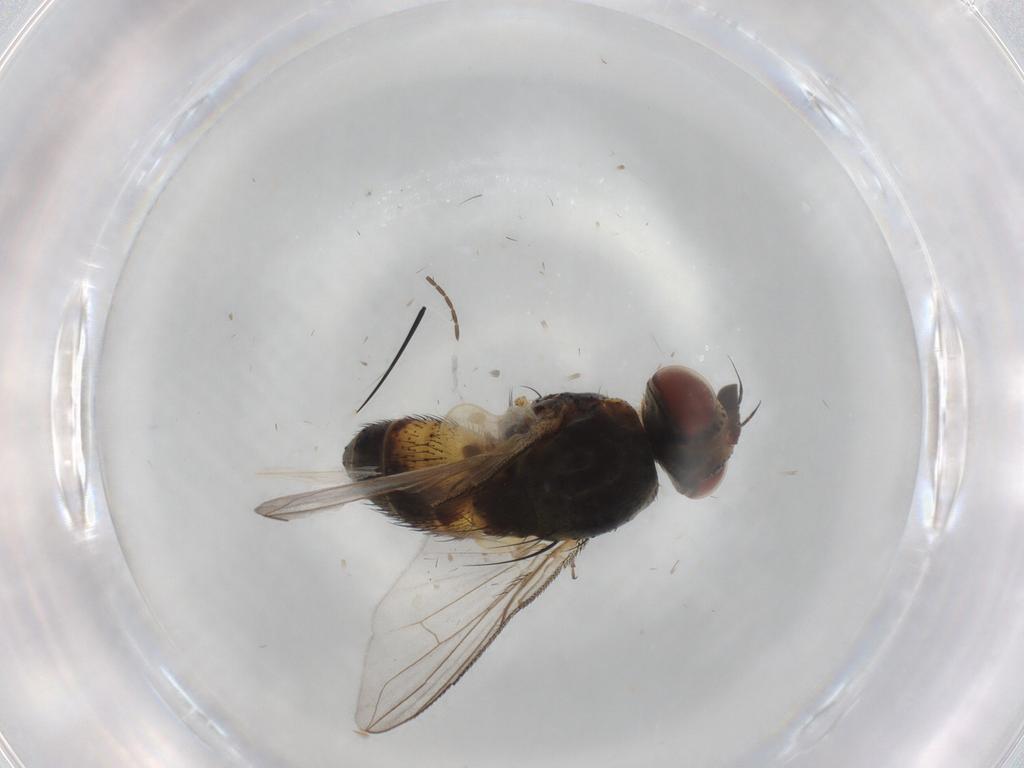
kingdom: Animalia
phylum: Arthropoda
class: Insecta
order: Diptera
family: Tachinidae
